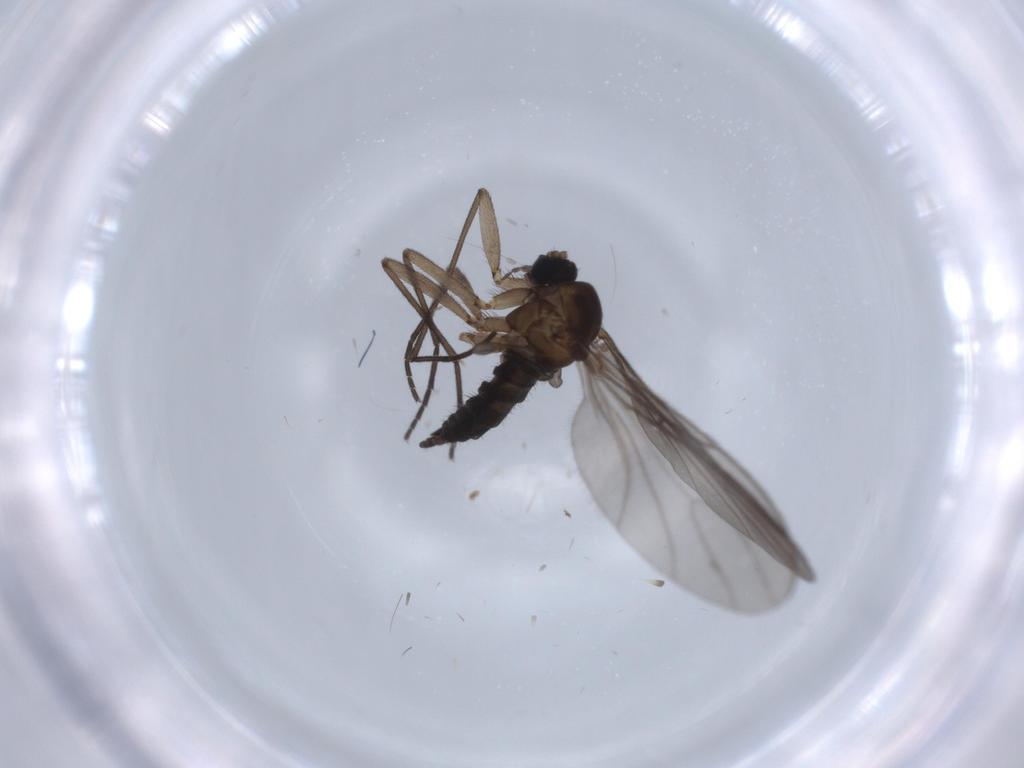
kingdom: Animalia
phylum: Arthropoda
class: Insecta
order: Diptera
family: Sciaridae
